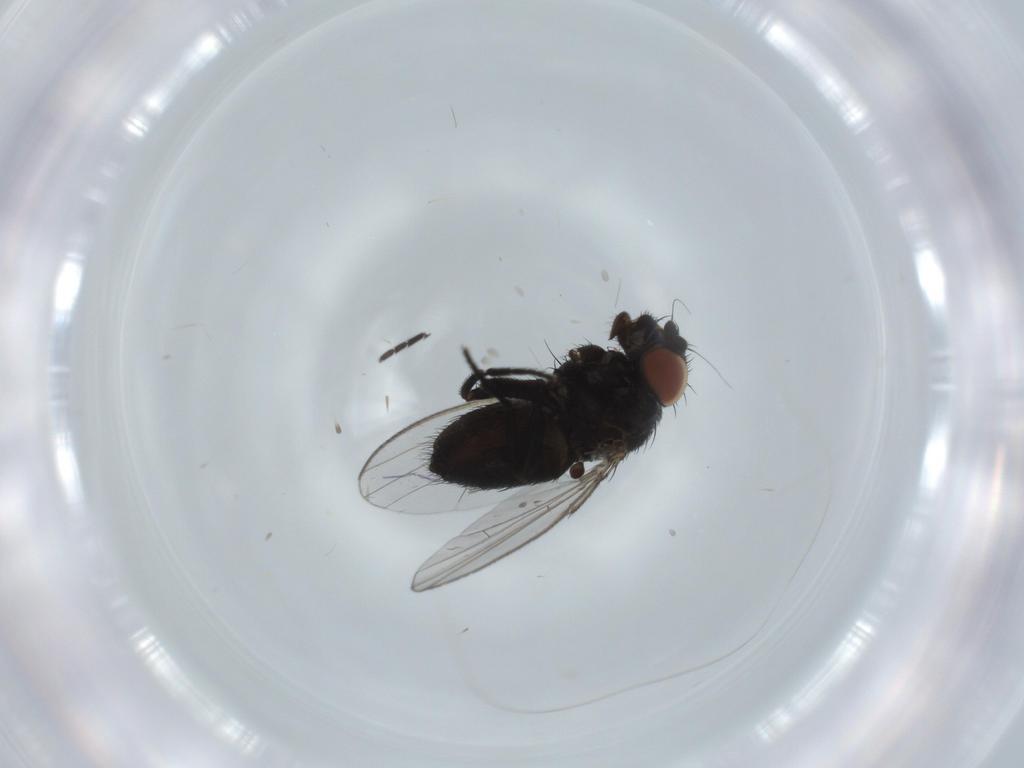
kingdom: Animalia
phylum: Arthropoda
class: Insecta
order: Diptera
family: Milichiidae
